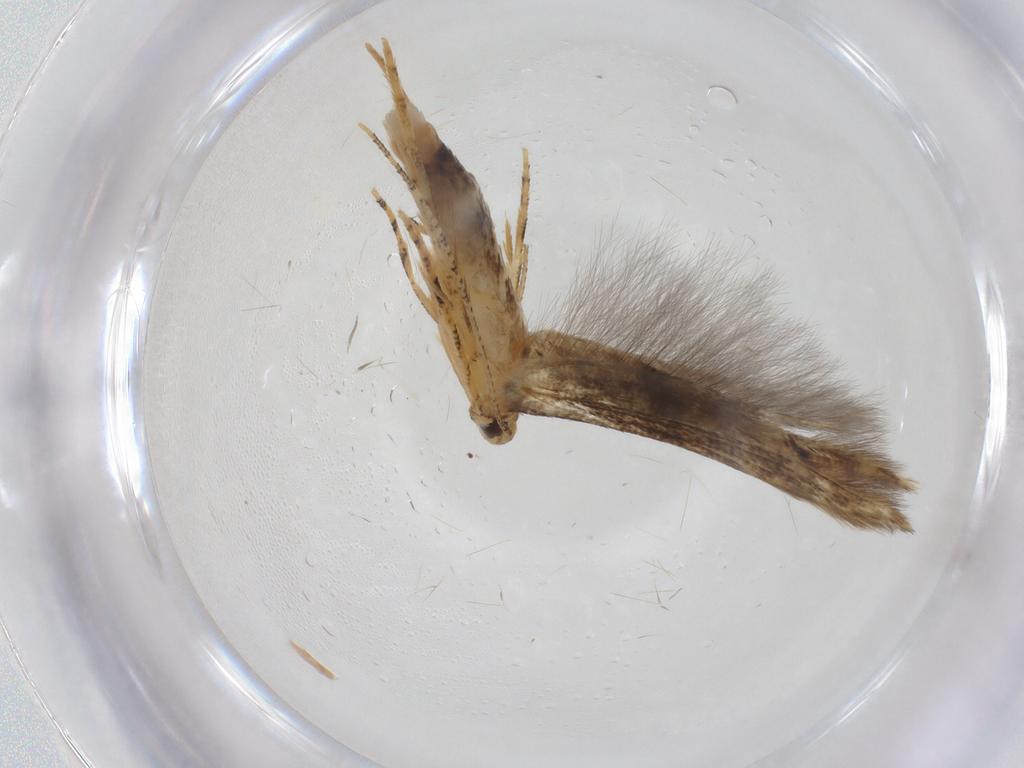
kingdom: Animalia
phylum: Arthropoda
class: Insecta
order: Lepidoptera
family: Tineidae
